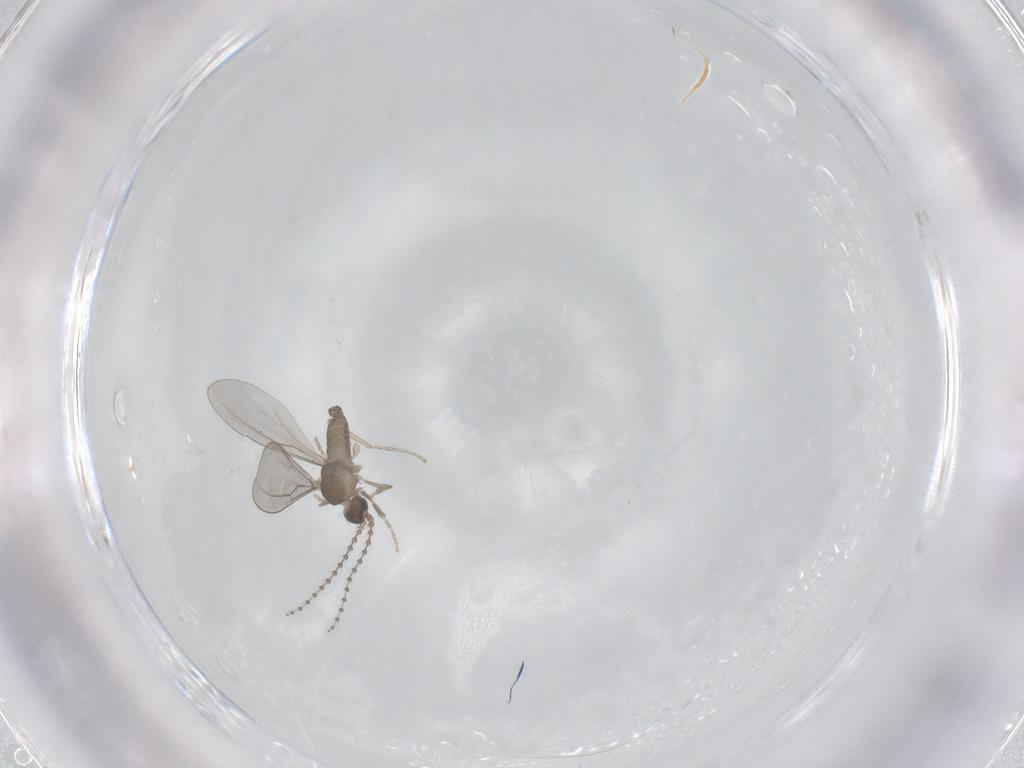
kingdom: Animalia
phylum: Arthropoda
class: Insecta
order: Diptera
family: Cecidomyiidae
